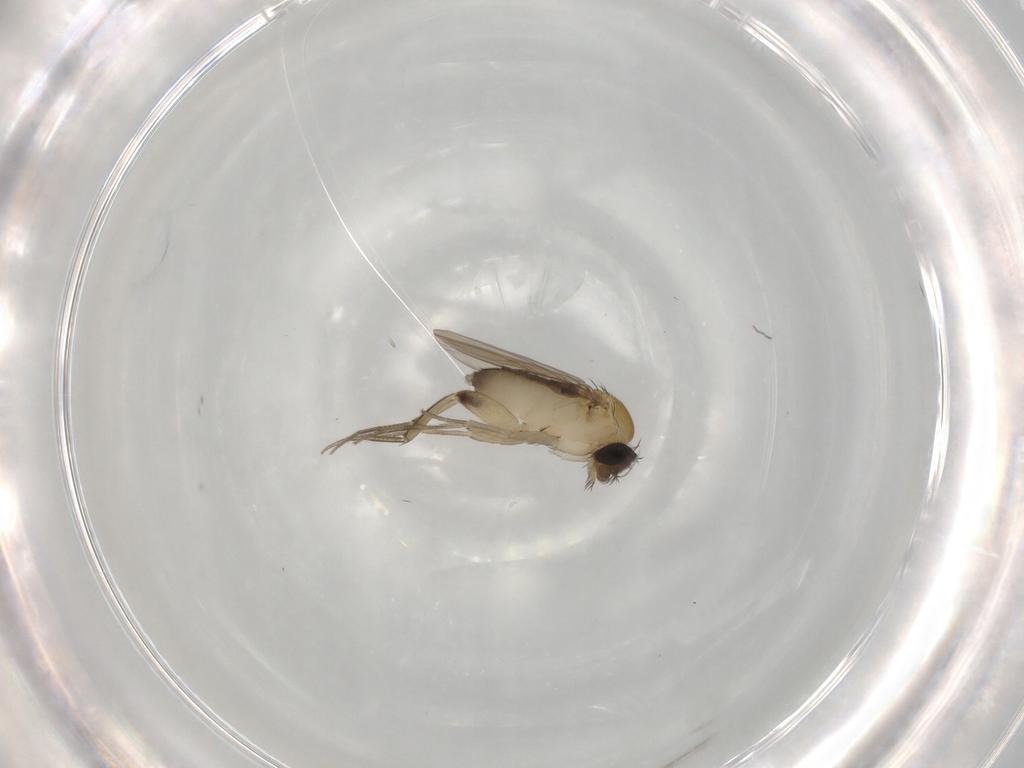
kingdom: Animalia
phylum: Arthropoda
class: Insecta
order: Diptera
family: Phoridae
